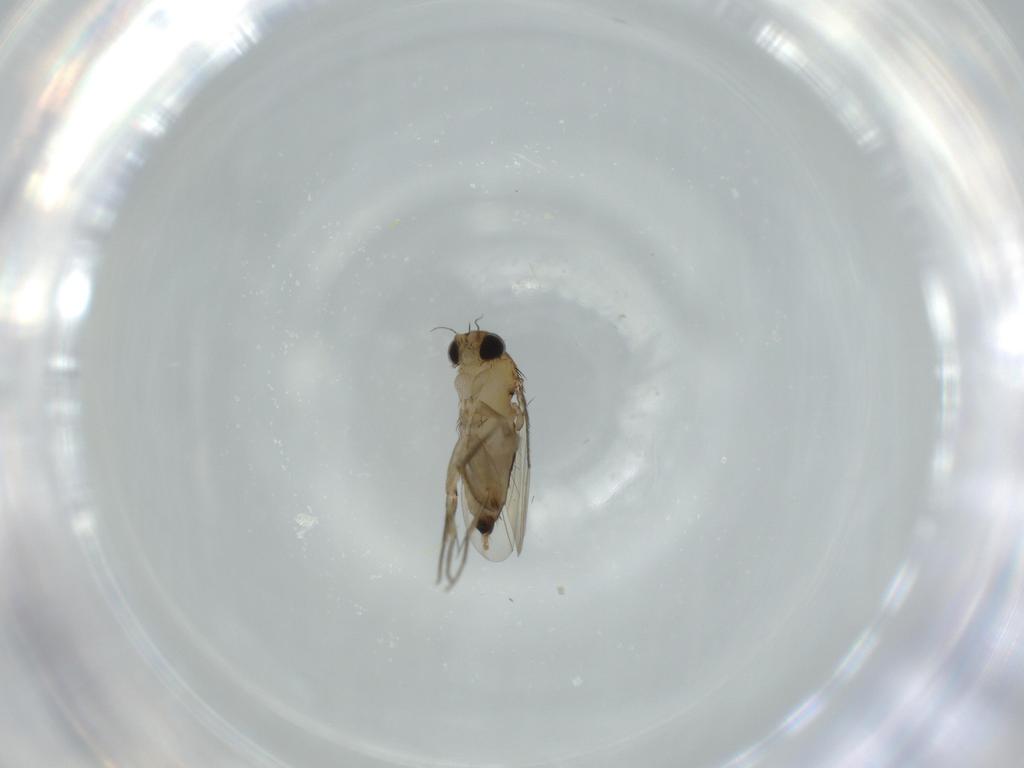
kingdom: Animalia
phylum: Arthropoda
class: Insecta
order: Diptera
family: Phoridae
